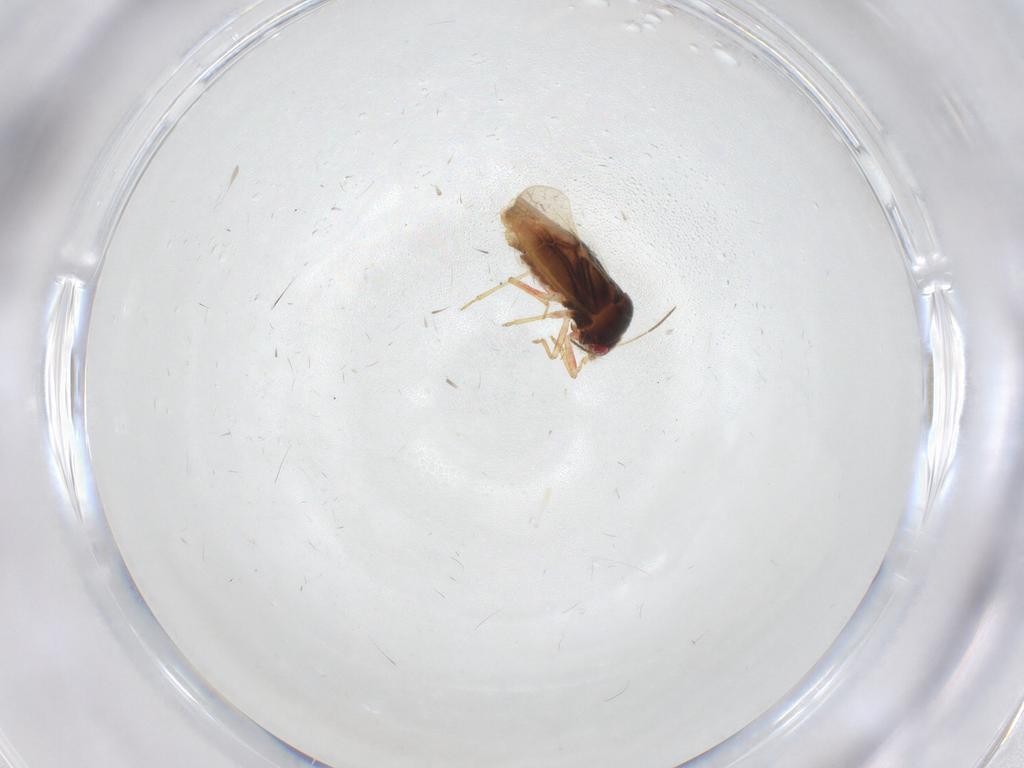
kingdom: Animalia
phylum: Arthropoda
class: Insecta
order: Hemiptera
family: Schizopteridae
